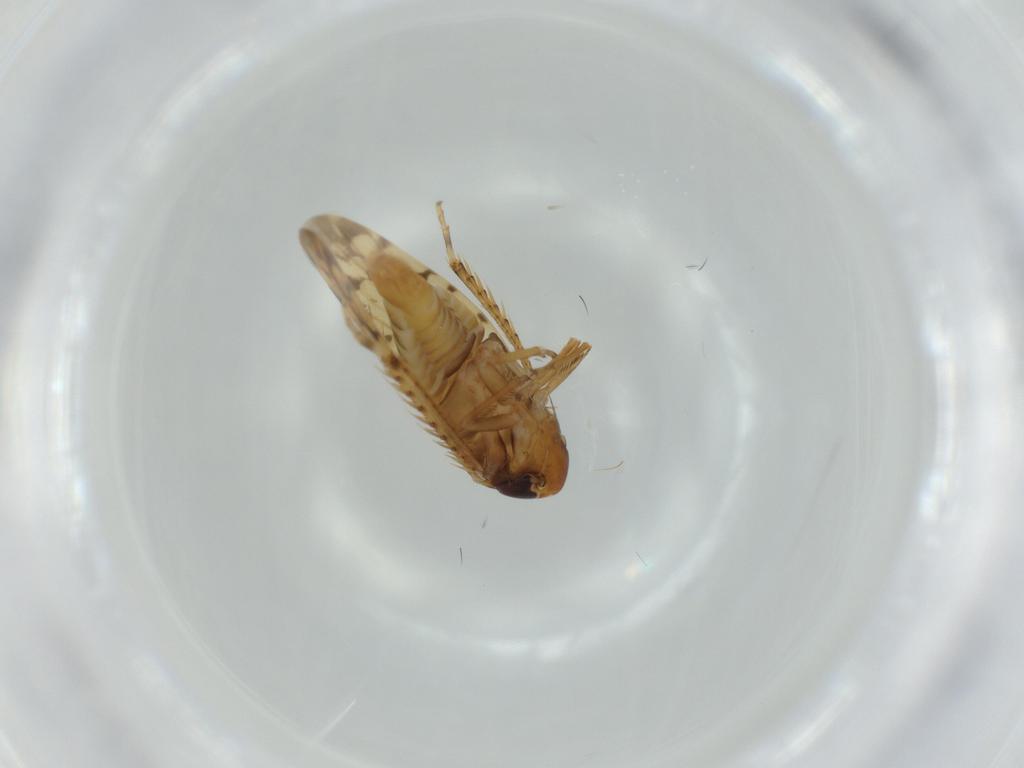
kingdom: Animalia
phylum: Arthropoda
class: Insecta
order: Hemiptera
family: Cicadellidae
